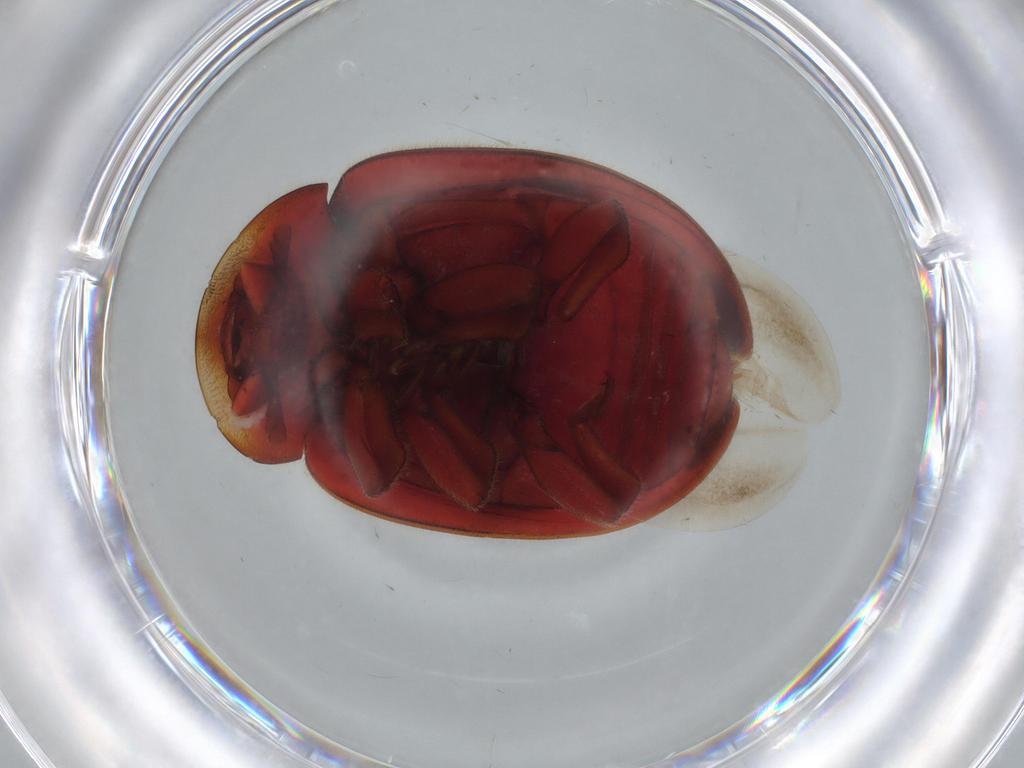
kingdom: Animalia
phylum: Arthropoda
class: Insecta
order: Coleoptera
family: Coccinellidae
